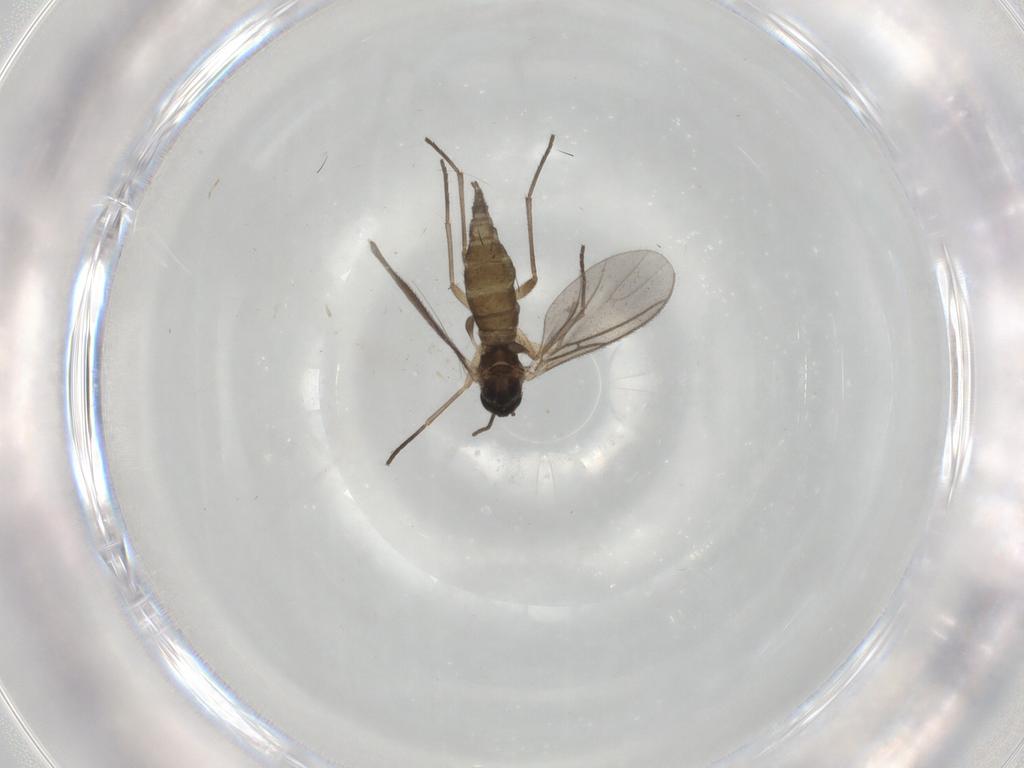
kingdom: Animalia
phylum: Arthropoda
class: Insecta
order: Diptera
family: Sciaridae
